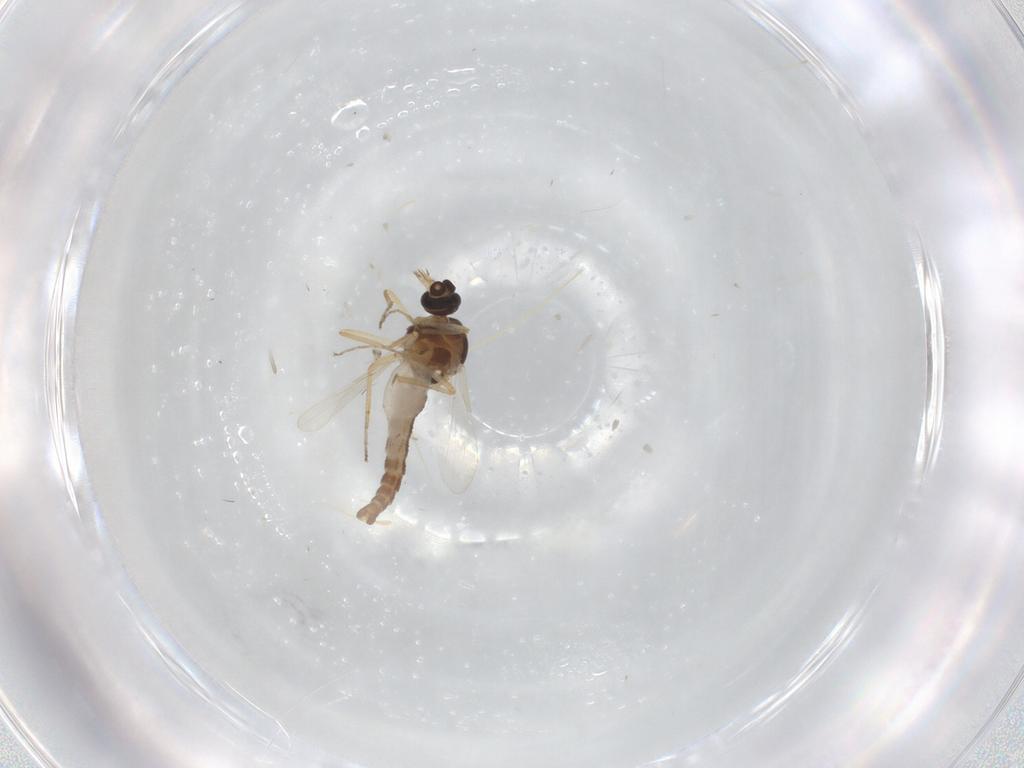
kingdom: Animalia
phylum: Arthropoda
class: Insecta
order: Diptera
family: Ceratopogonidae
